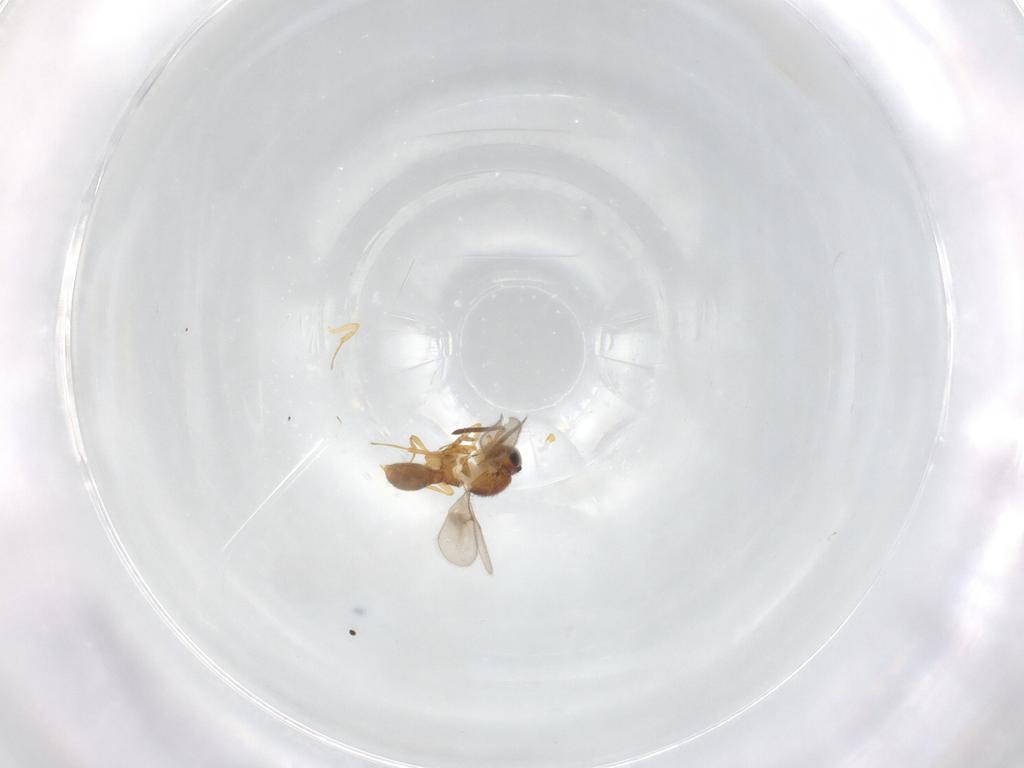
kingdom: Animalia
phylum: Arthropoda
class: Insecta
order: Hymenoptera
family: Scelionidae
